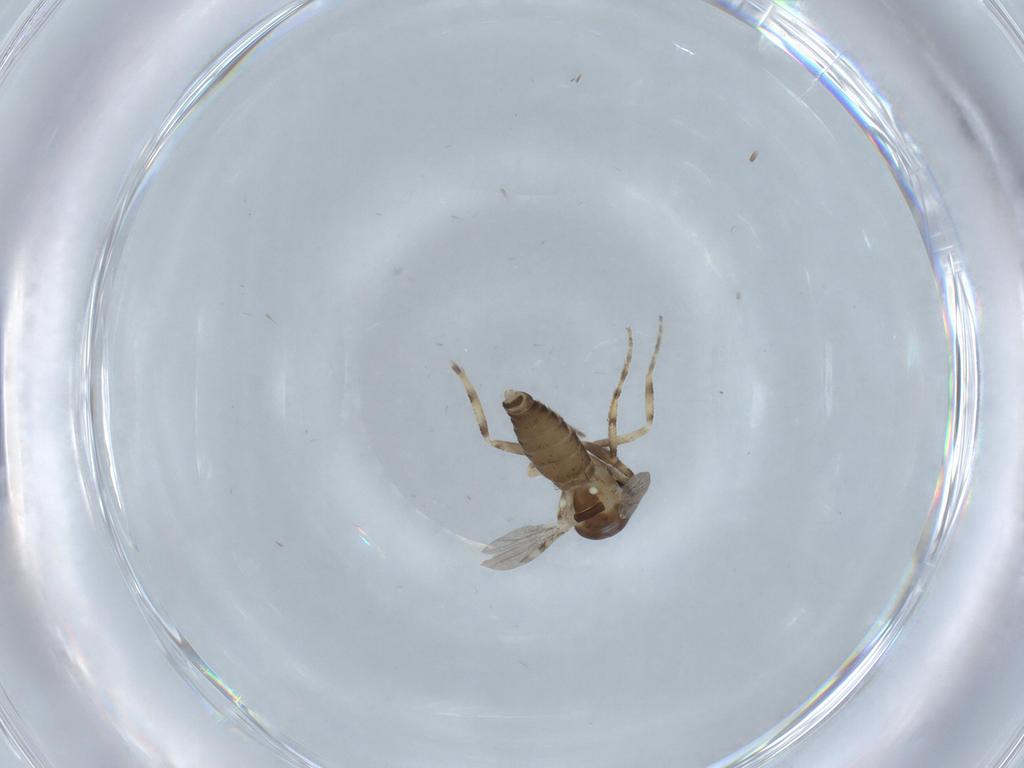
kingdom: Animalia
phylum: Arthropoda
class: Insecta
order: Diptera
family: Ceratopogonidae
